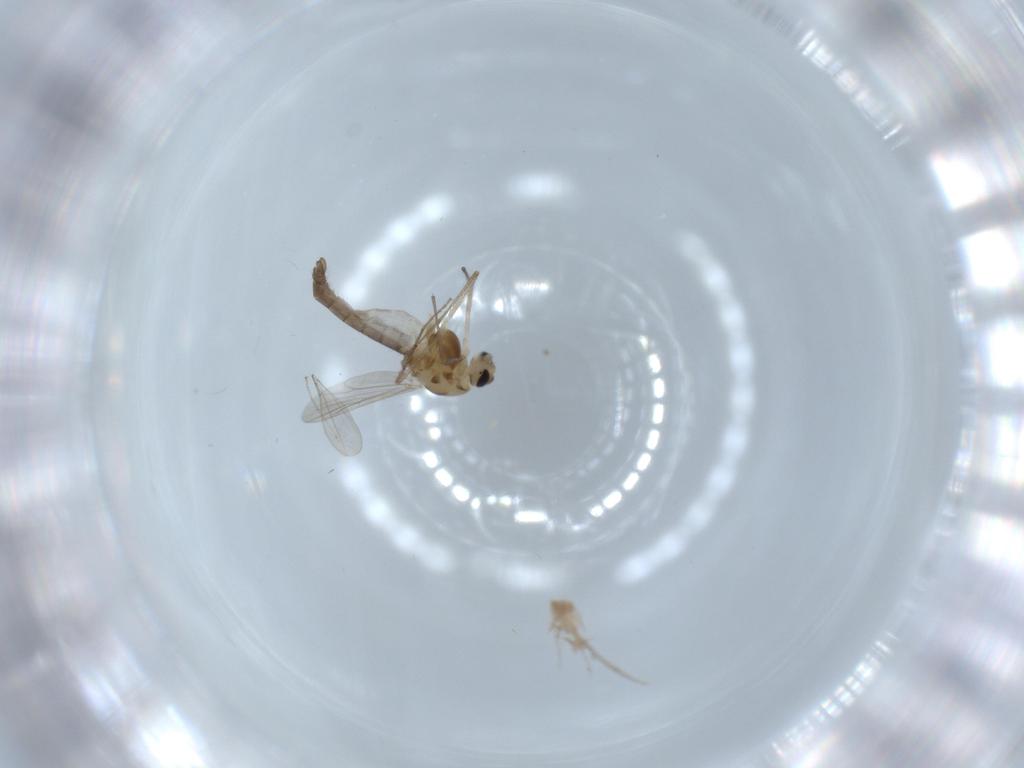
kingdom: Animalia
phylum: Arthropoda
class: Insecta
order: Diptera
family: Chironomidae
